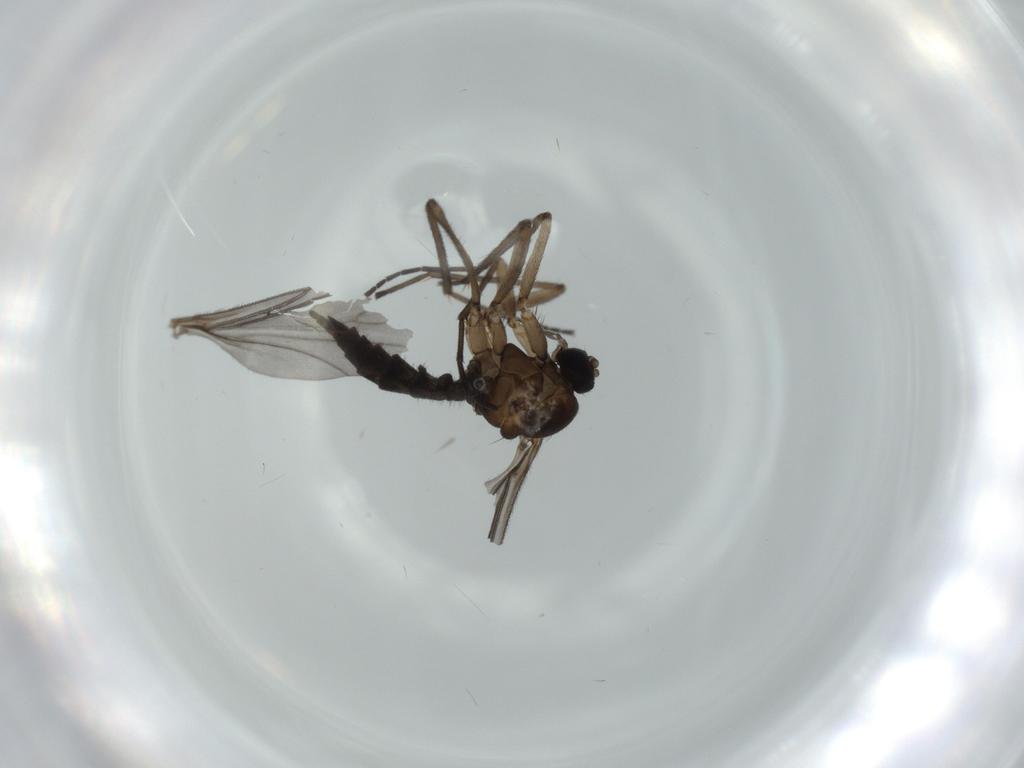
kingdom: Animalia
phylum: Arthropoda
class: Insecta
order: Diptera
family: Sciaridae
